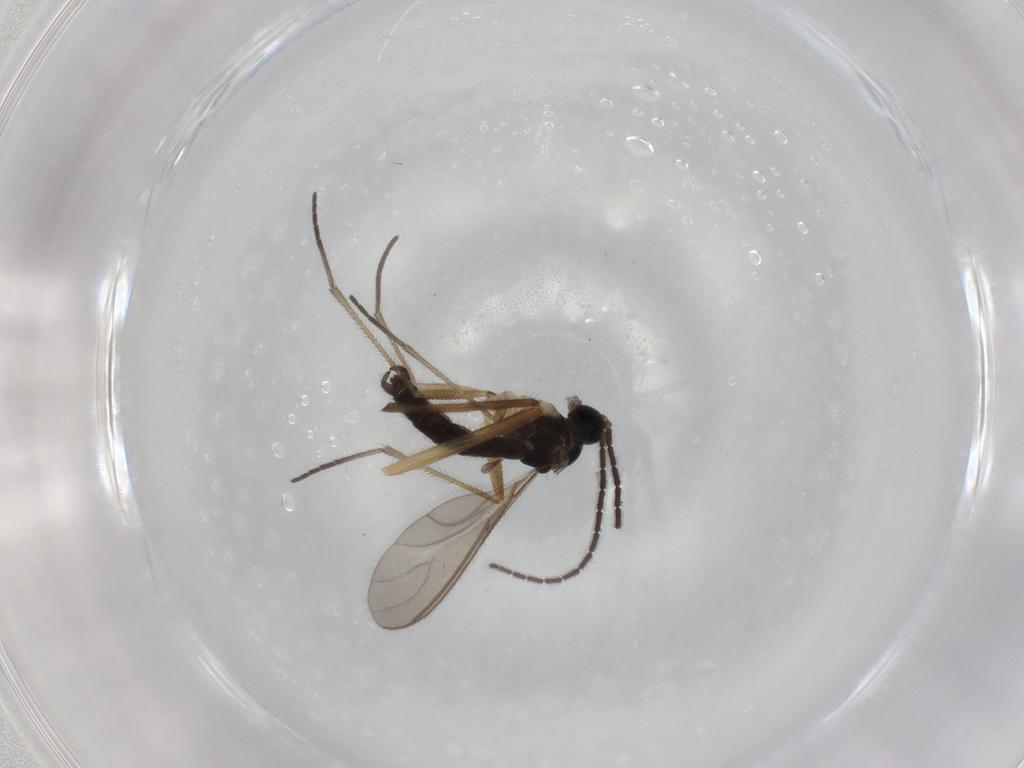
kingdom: Animalia
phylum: Arthropoda
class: Insecta
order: Diptera
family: Sciaridae
